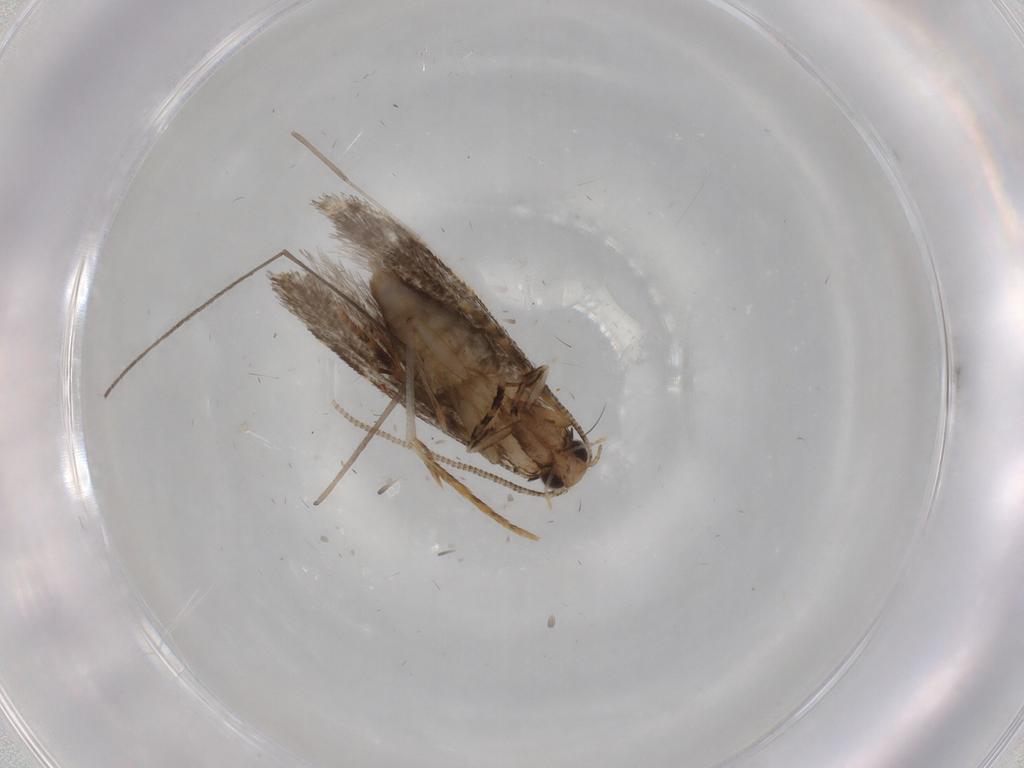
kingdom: Animalia
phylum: Arthropoda
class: Insecta
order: Lepidoptera
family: Tineidae
